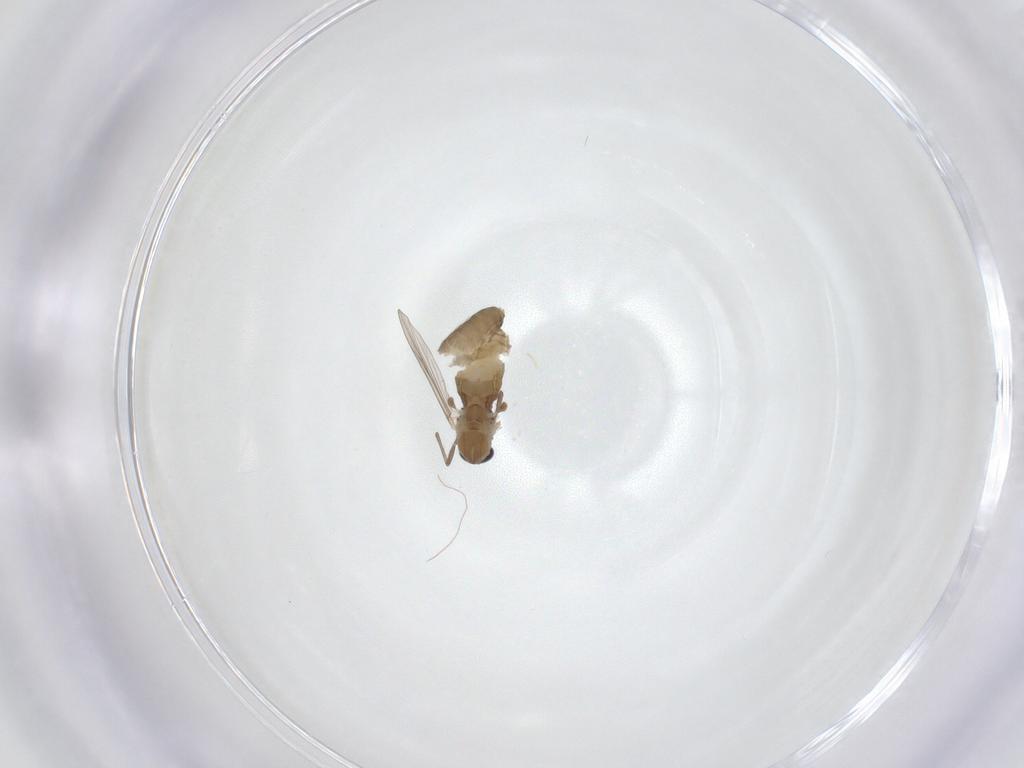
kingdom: Animalia
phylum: Arthropoda
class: Insecta
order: Diptera
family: Chironomidae
